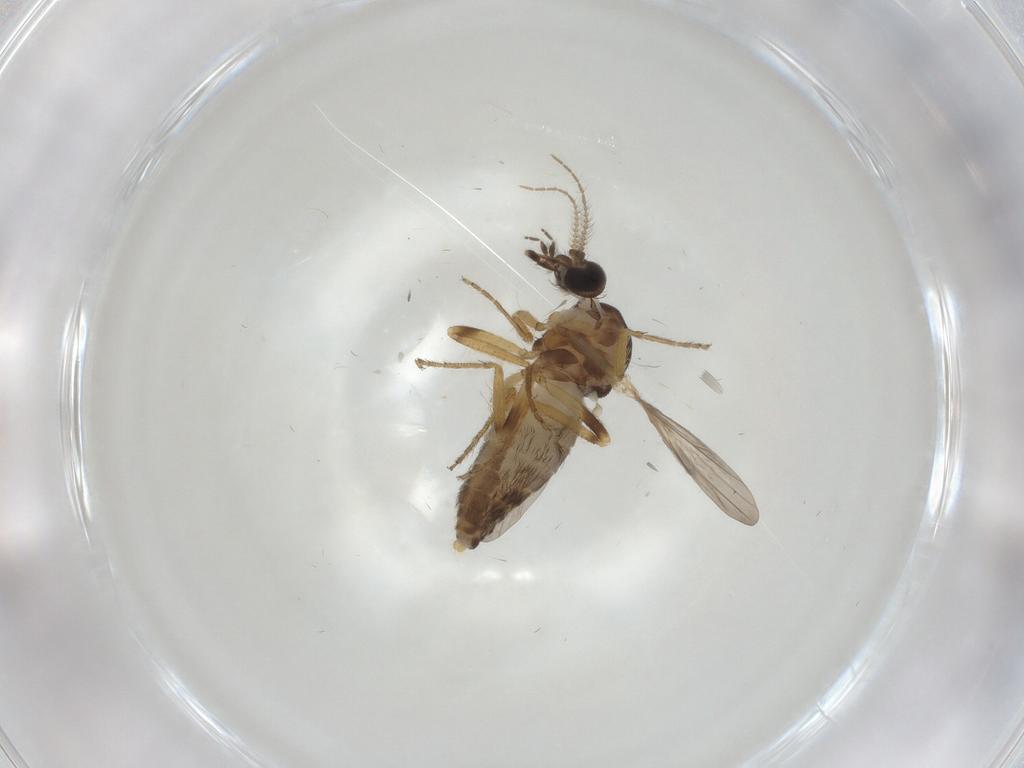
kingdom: Animalia
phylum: Arthropoda
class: Insecta
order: Diptera
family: Ceratopogonidae
